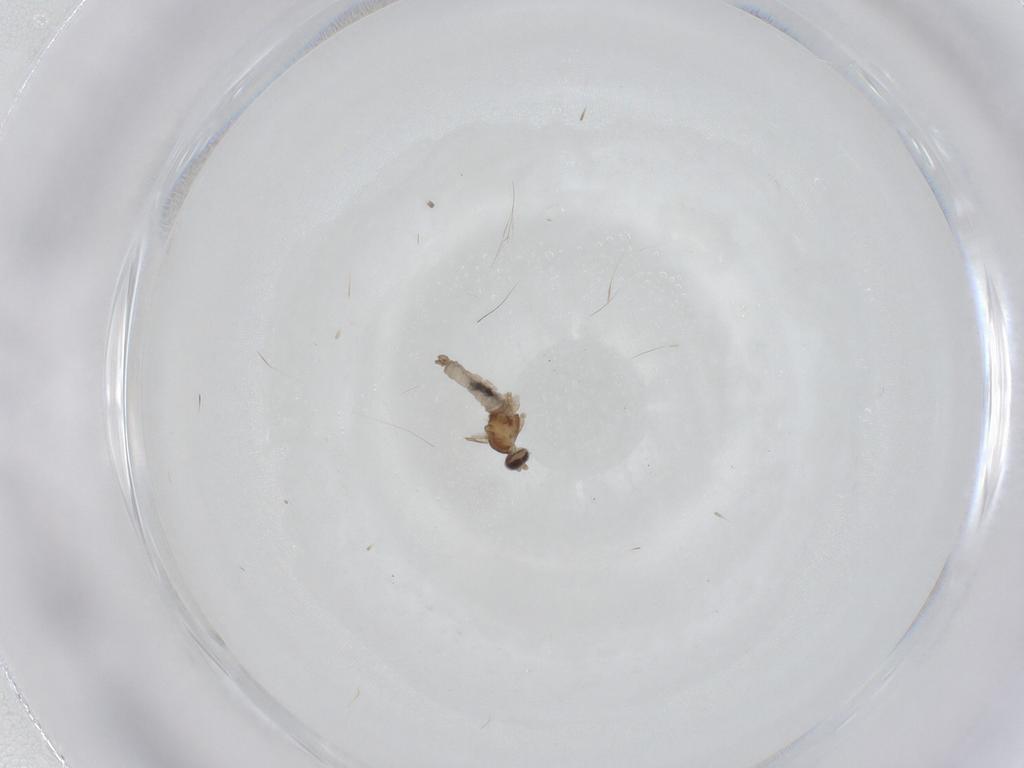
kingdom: Animalia
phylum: Arthropoda
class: Insecta
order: Diptera
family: Cecidomyiidae
